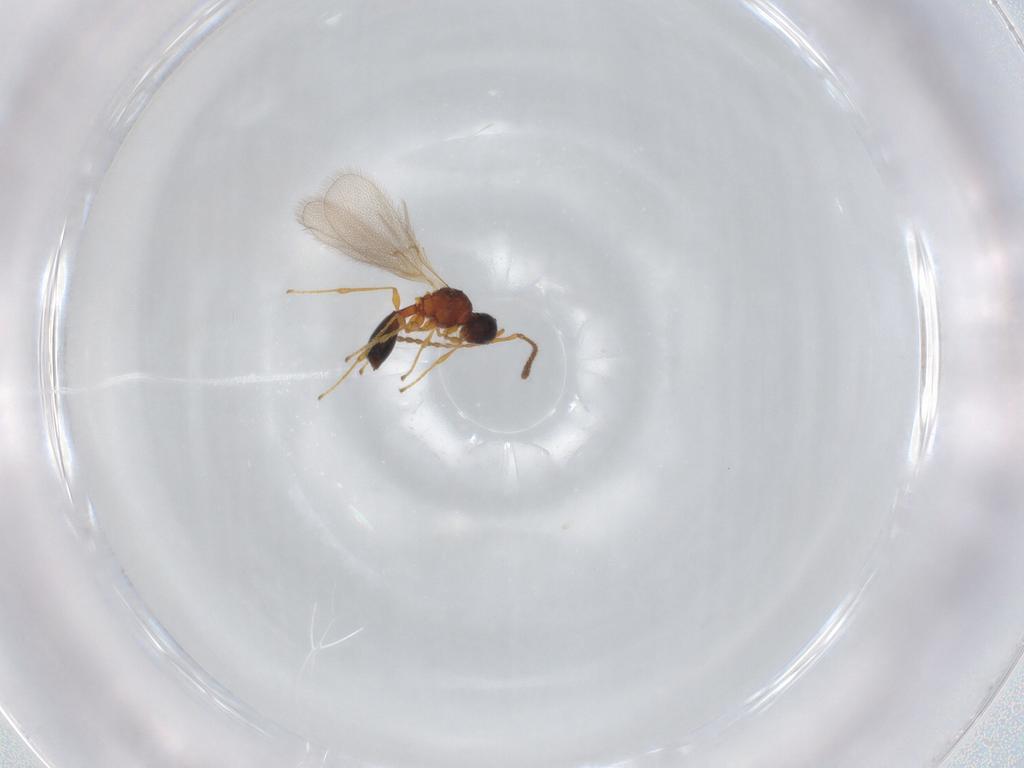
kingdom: Animalia
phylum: Arthropoda
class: Insecta
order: Hymenoptera
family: Diapriidae
